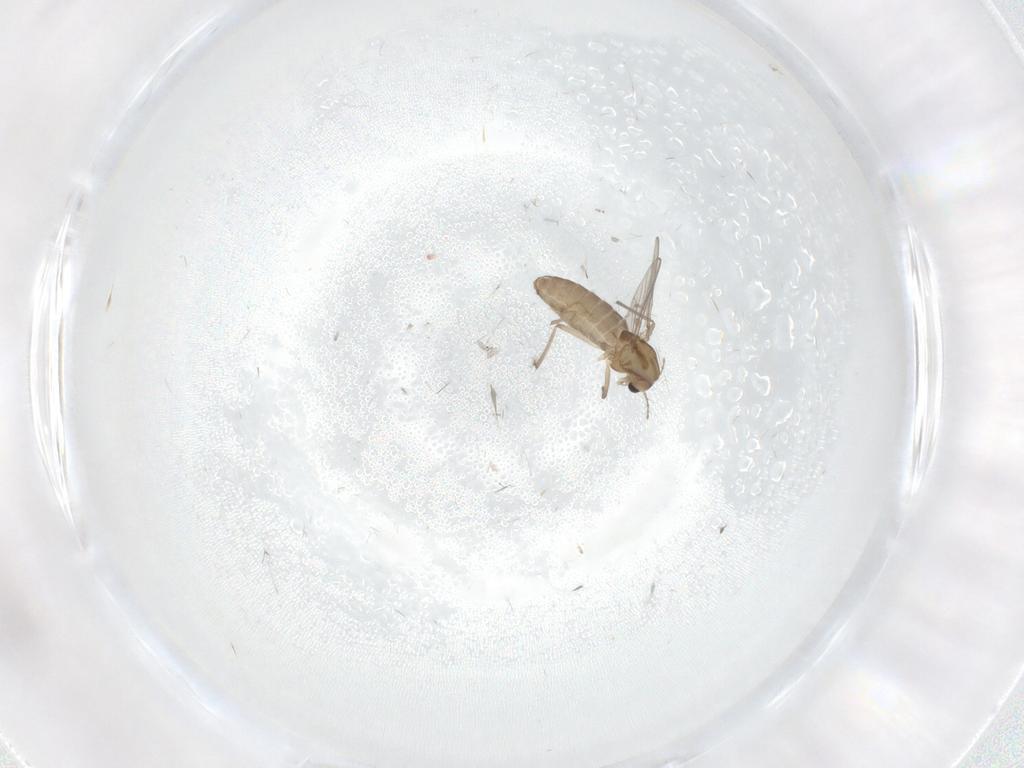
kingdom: Animalia
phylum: Arthropoda
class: Insecta
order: Diptera
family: Chironomidae
